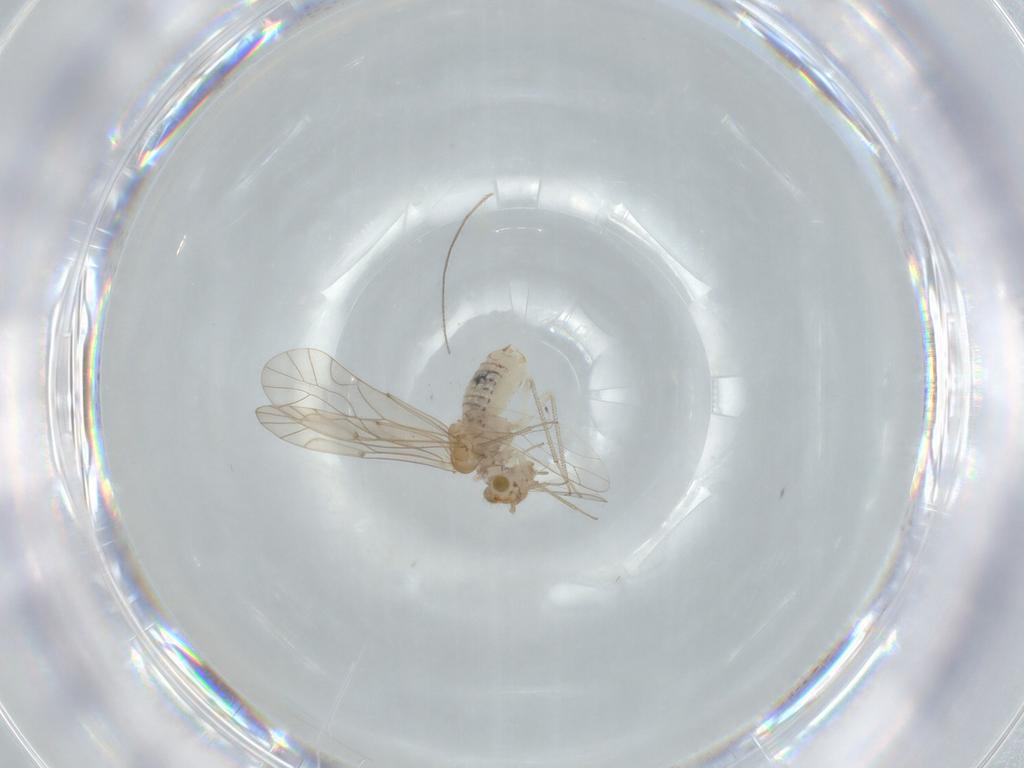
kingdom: Animalia
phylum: Arthropoda
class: Insecta
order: Psocodea
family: Lachesillidae
